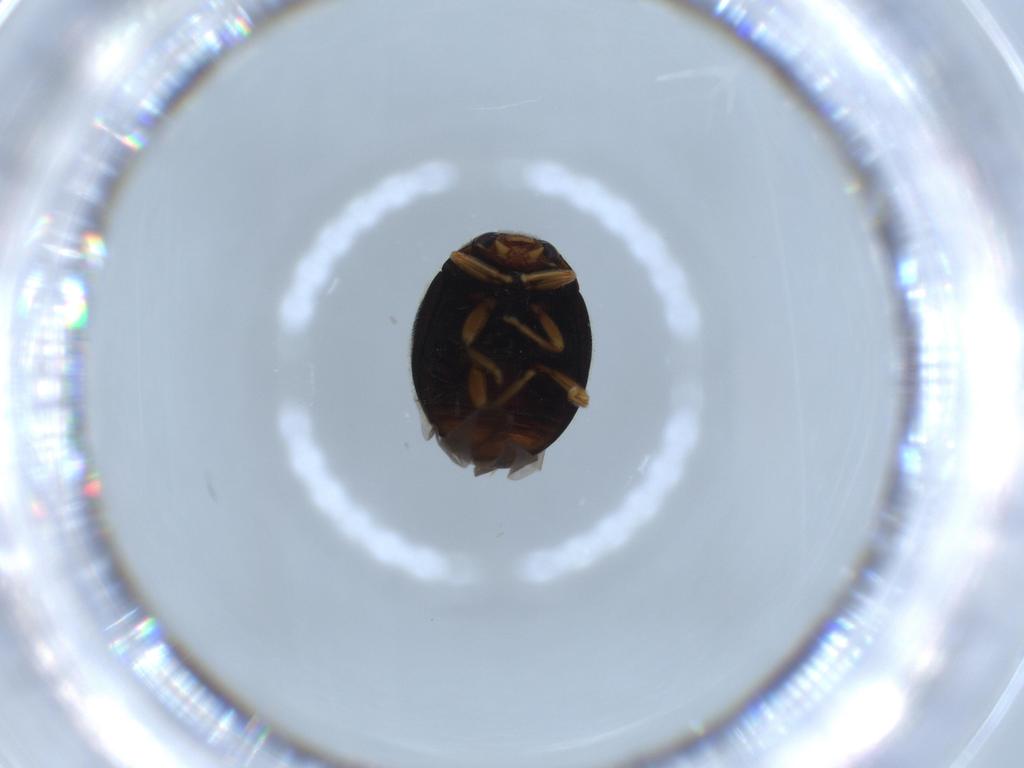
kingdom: Animalia
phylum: Arthropoda
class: Insecta
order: Coleoptera
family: Coccinellidae
